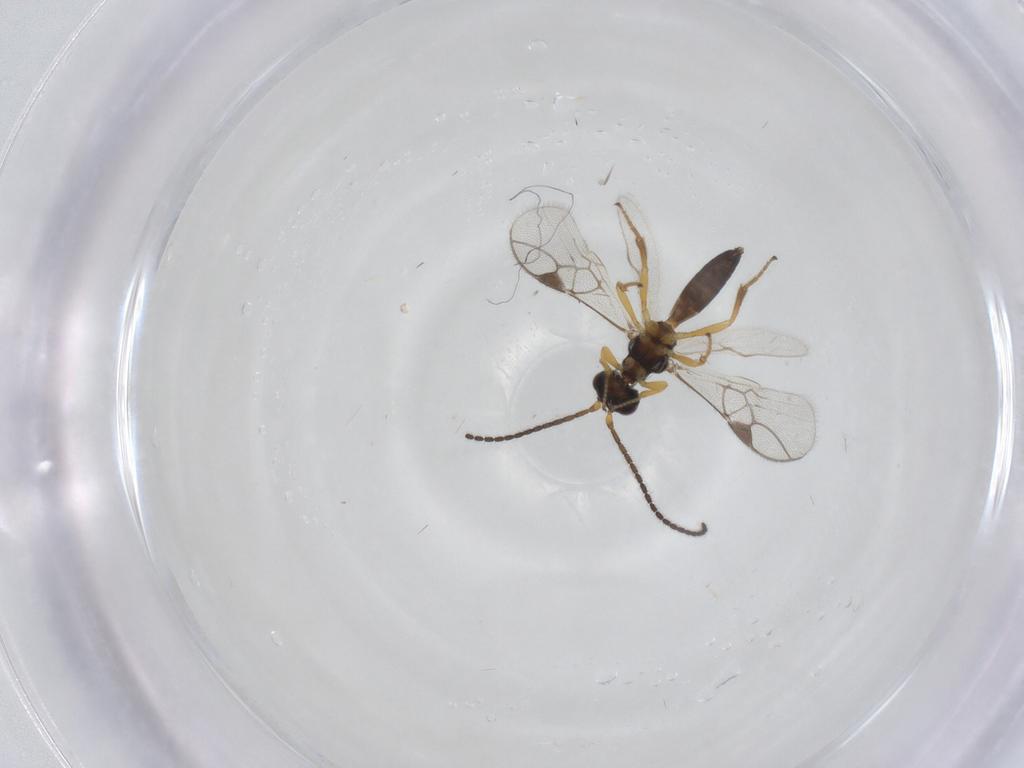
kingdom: Animalia
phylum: Arthropoda
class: Insecta
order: Hymenoptera
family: Braconidae
